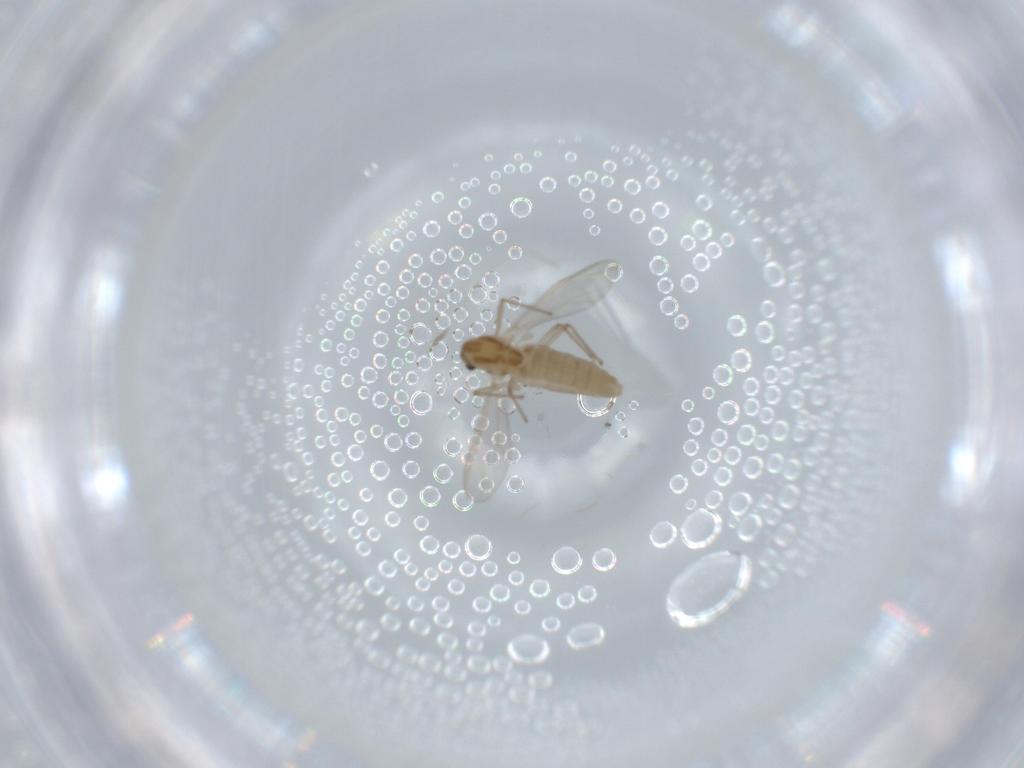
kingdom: Animalia
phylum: Arthropoda
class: Insecta
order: Diptera
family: Chironomidae
